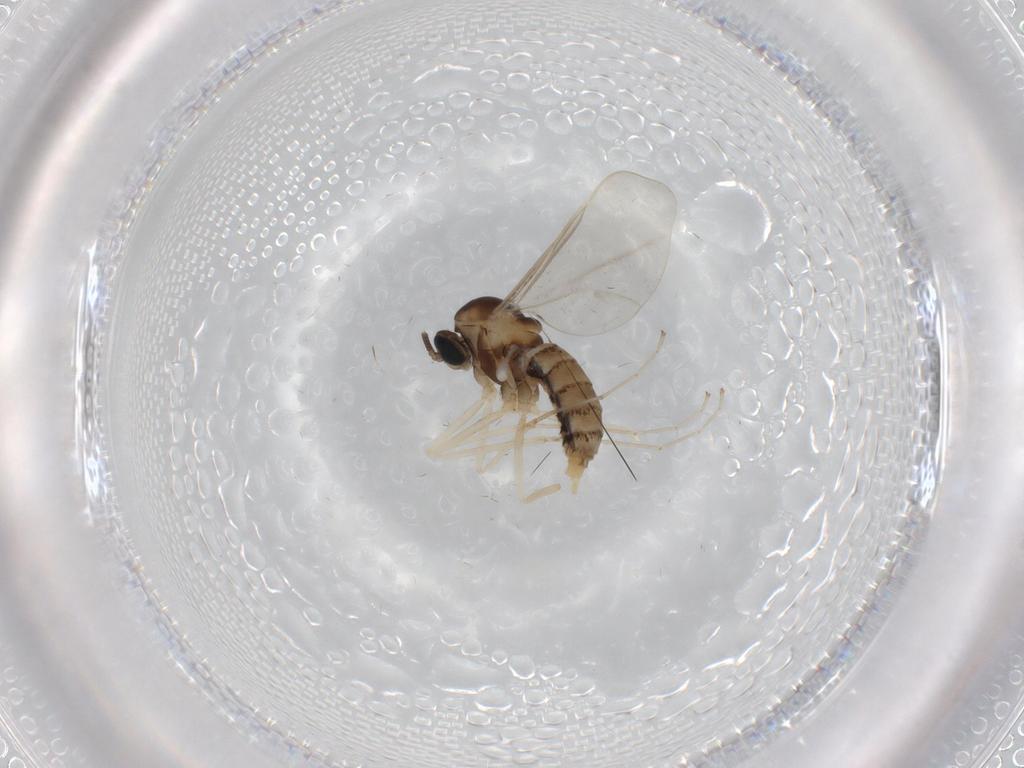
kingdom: Animalia
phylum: Arthropoda
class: Insecta
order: Diptera
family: Cecidomyiidae
